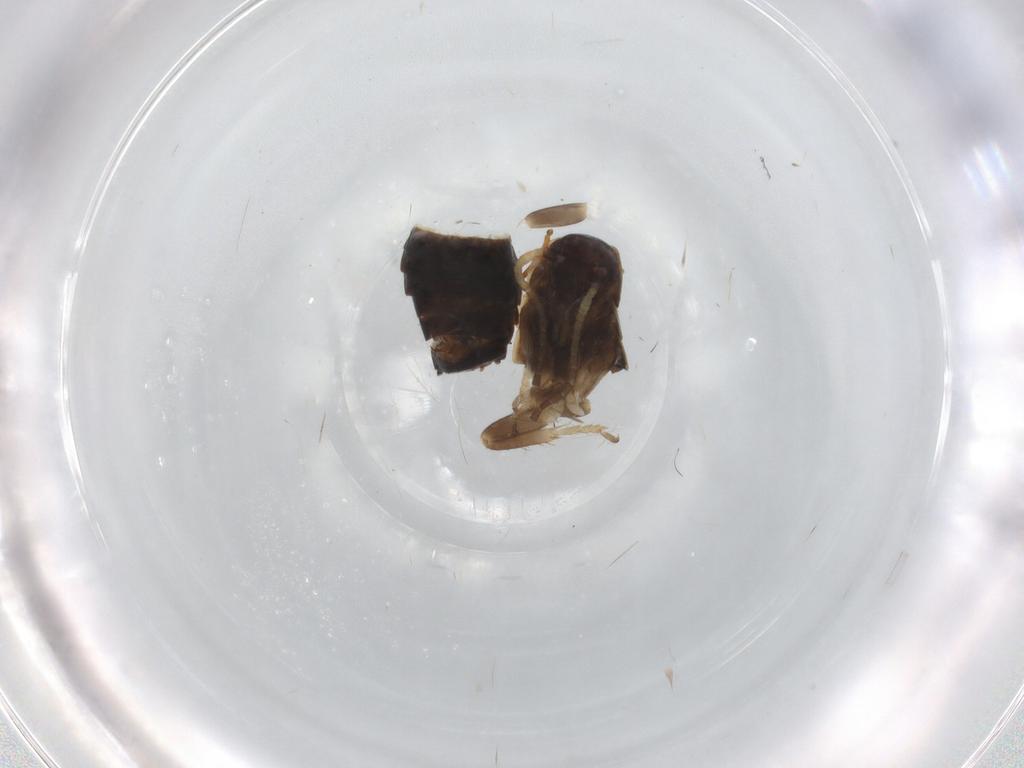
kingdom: Animalia
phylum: Arthropoda
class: Insecta
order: Blattodea
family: Ectobiidae
